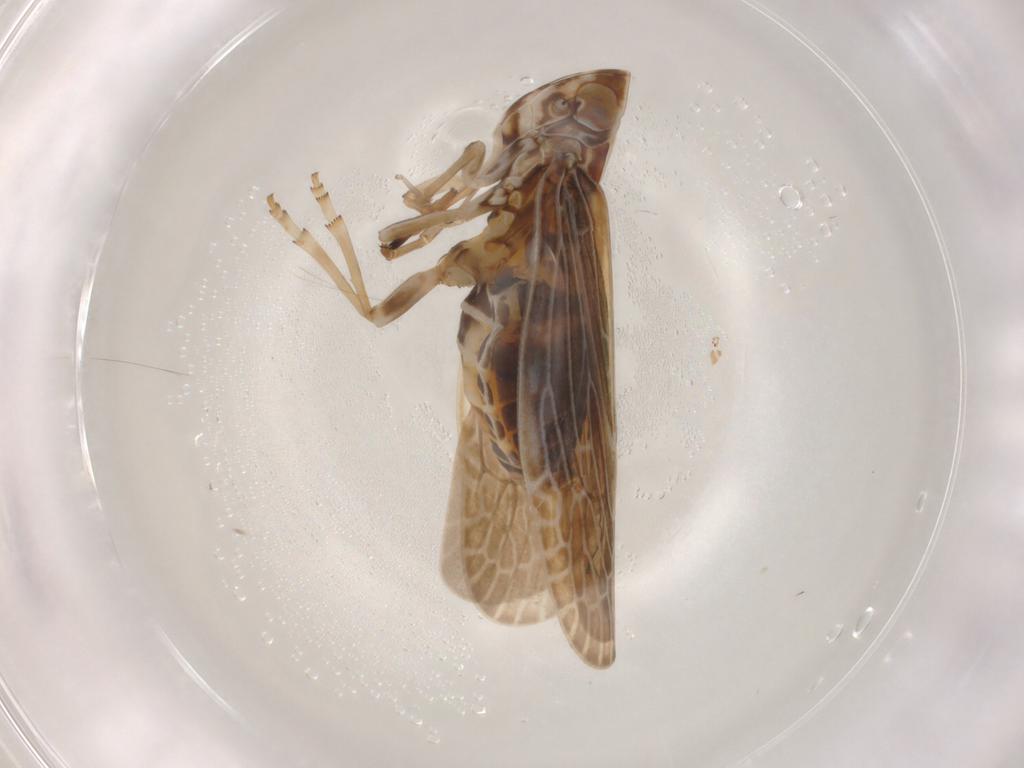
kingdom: Animalia
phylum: Arthropoda
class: Insecta
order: Hemiptera
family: Achilidae
